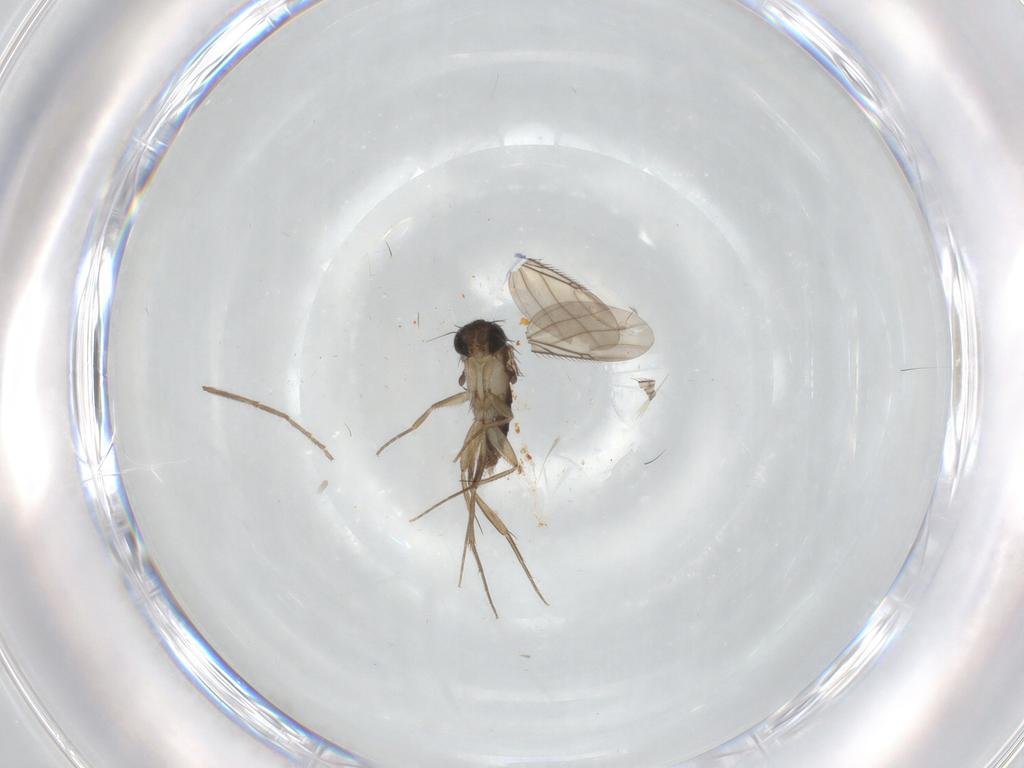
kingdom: Animalia
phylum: Arthropoda
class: Insecta
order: Diptera
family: Phoridae
